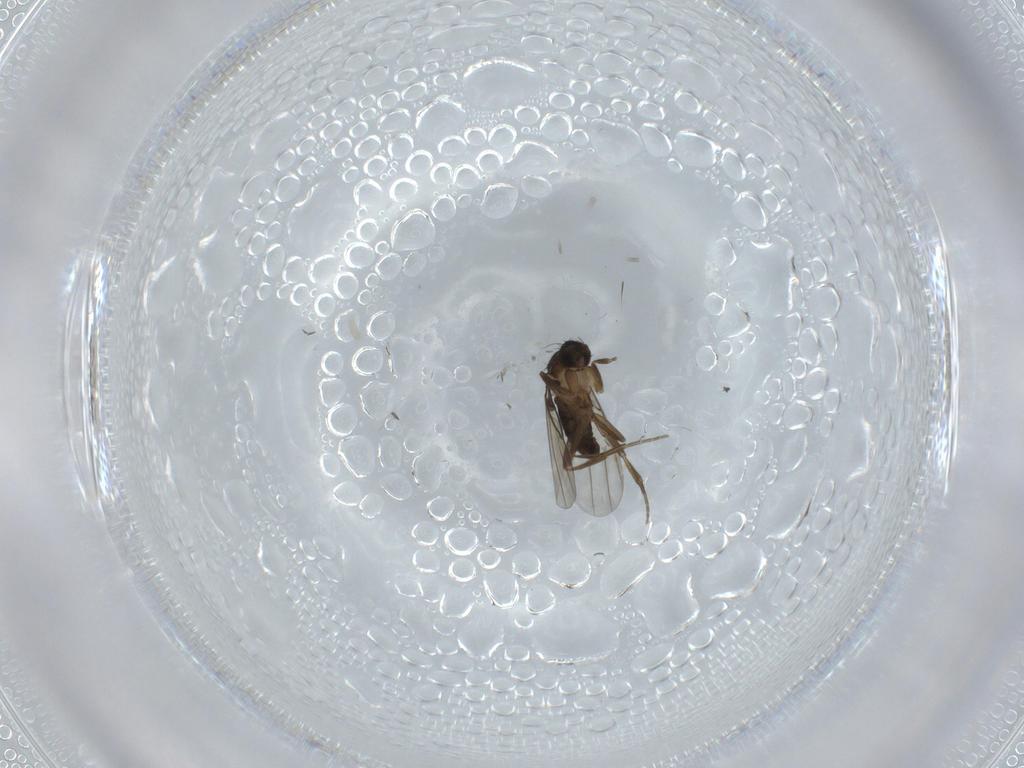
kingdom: Animalia
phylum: Arthropoda
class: Insecta
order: Diptera
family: Phoridae
